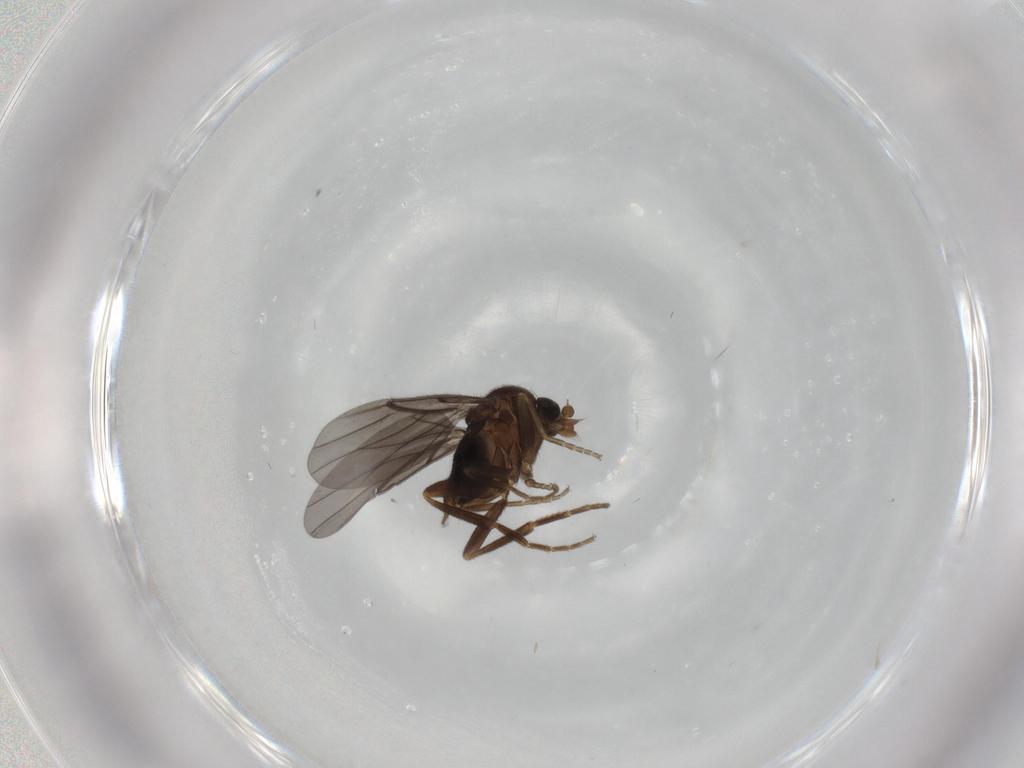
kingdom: Animalia
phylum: Arthropoda
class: Insecta
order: Diptera
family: Phoridae
